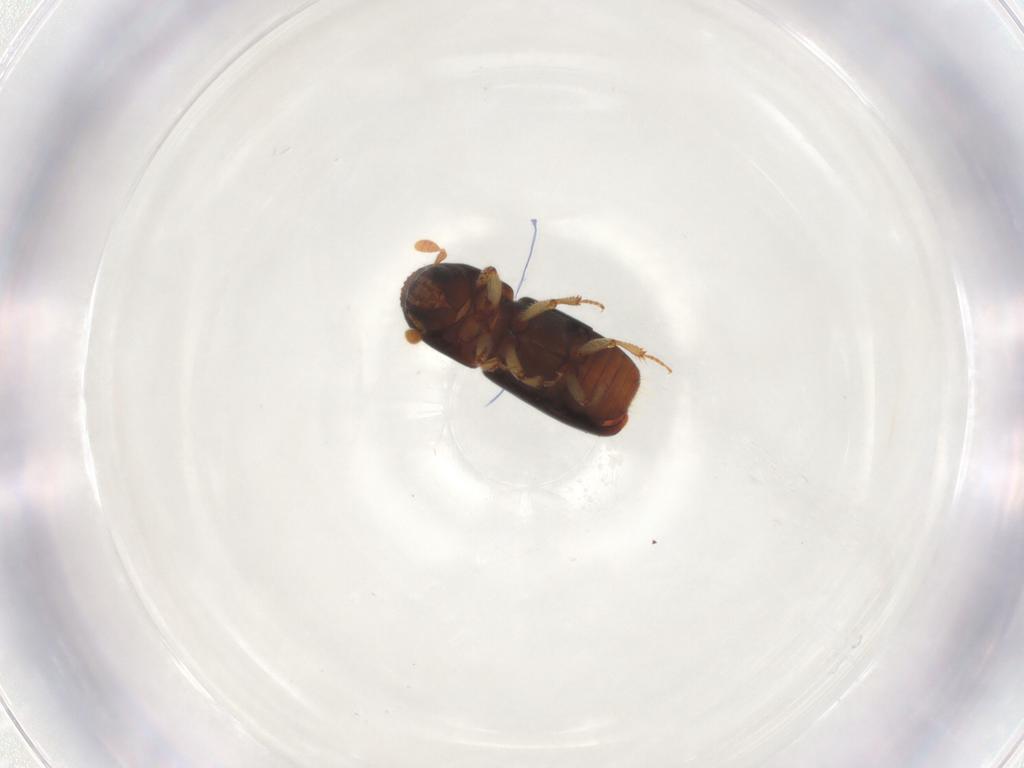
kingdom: Animalia
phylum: Arthropoda
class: Insecta
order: Coleoptera
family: Curculionidae
